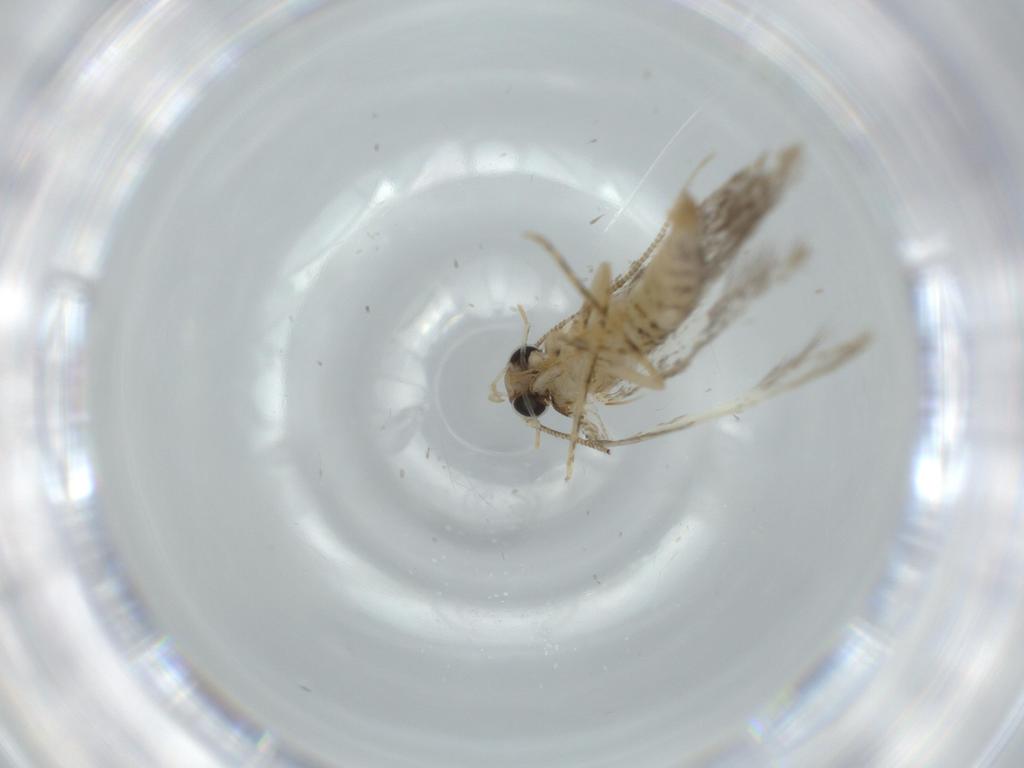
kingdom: Animalia
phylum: Arthropoda
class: Insecta
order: Lepidoptera
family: Tineidae
